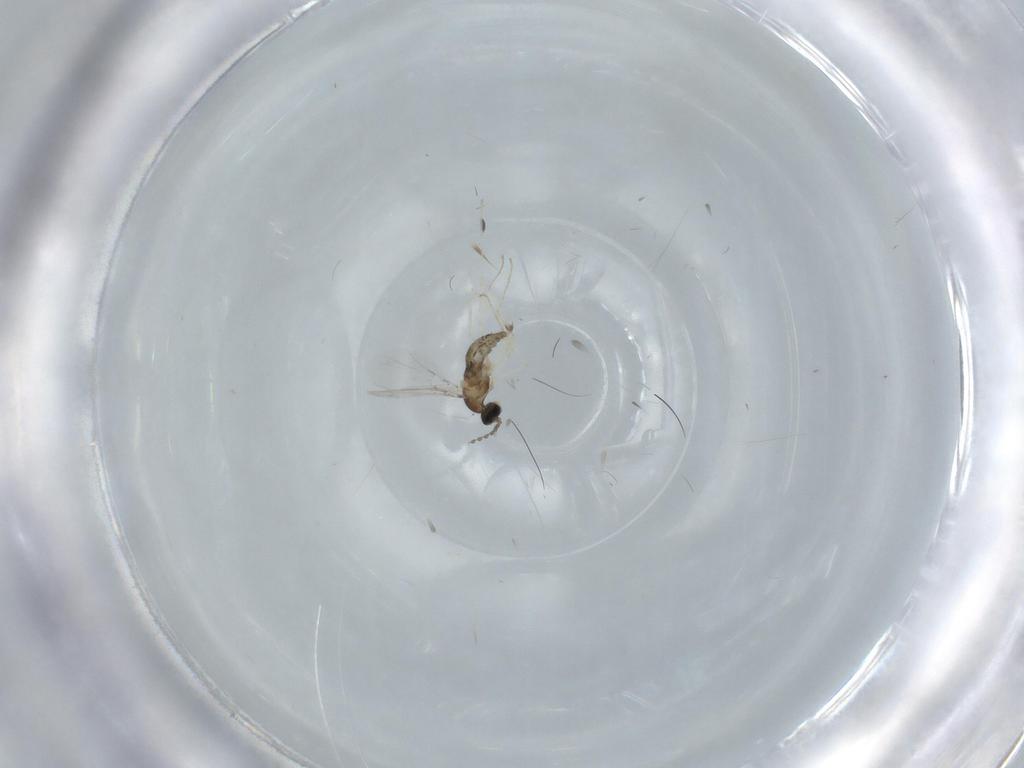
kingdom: Animalia
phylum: Arthropoda
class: Insecta
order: Diptera
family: Cecidomyiidae
